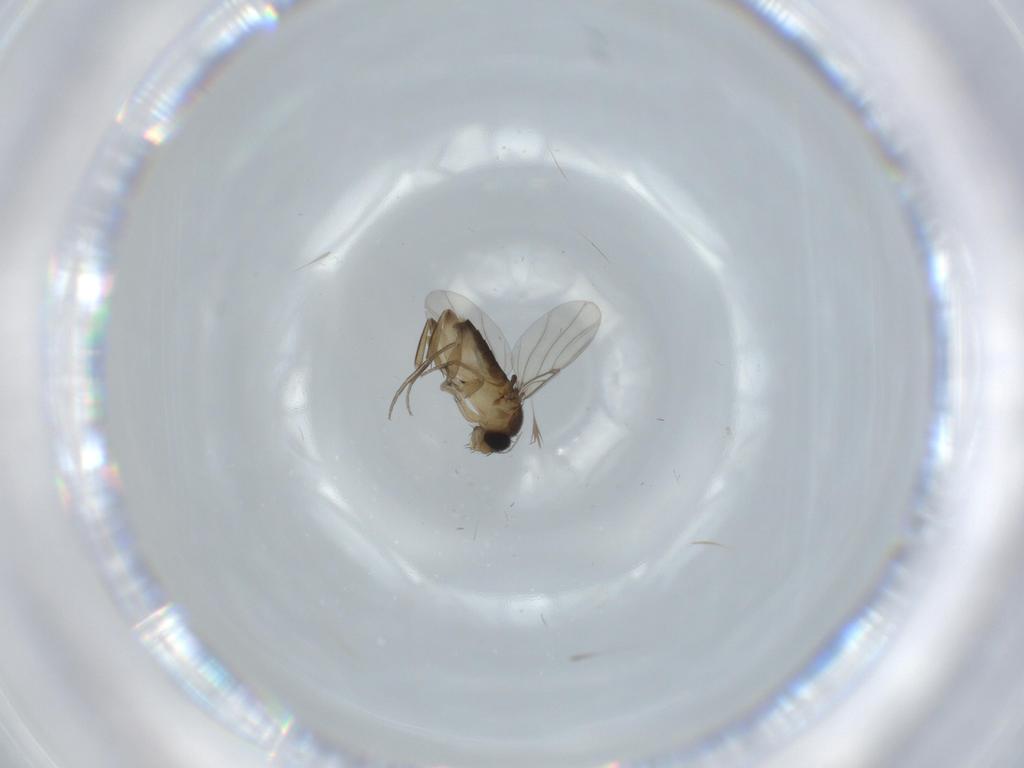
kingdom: Animalia
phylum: Arthropoda
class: Insecta
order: Diptera
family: Phoridae
